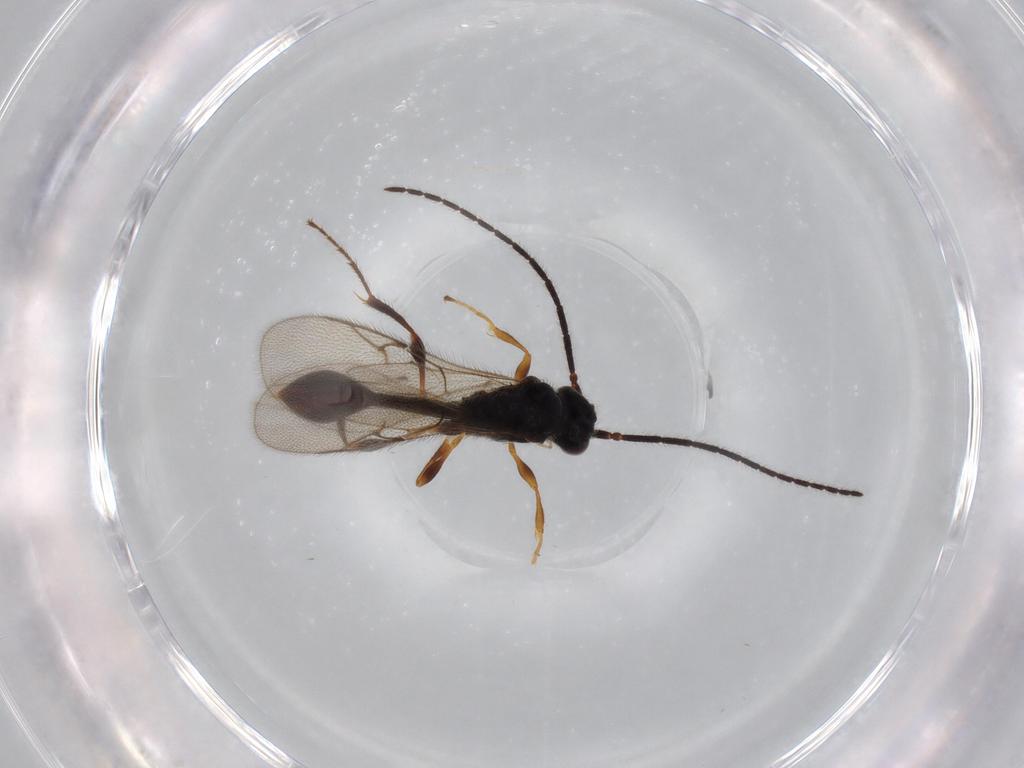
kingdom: Animalia
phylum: Arthropoda
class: Insecta
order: Hymenoptera
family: Diapriidae
